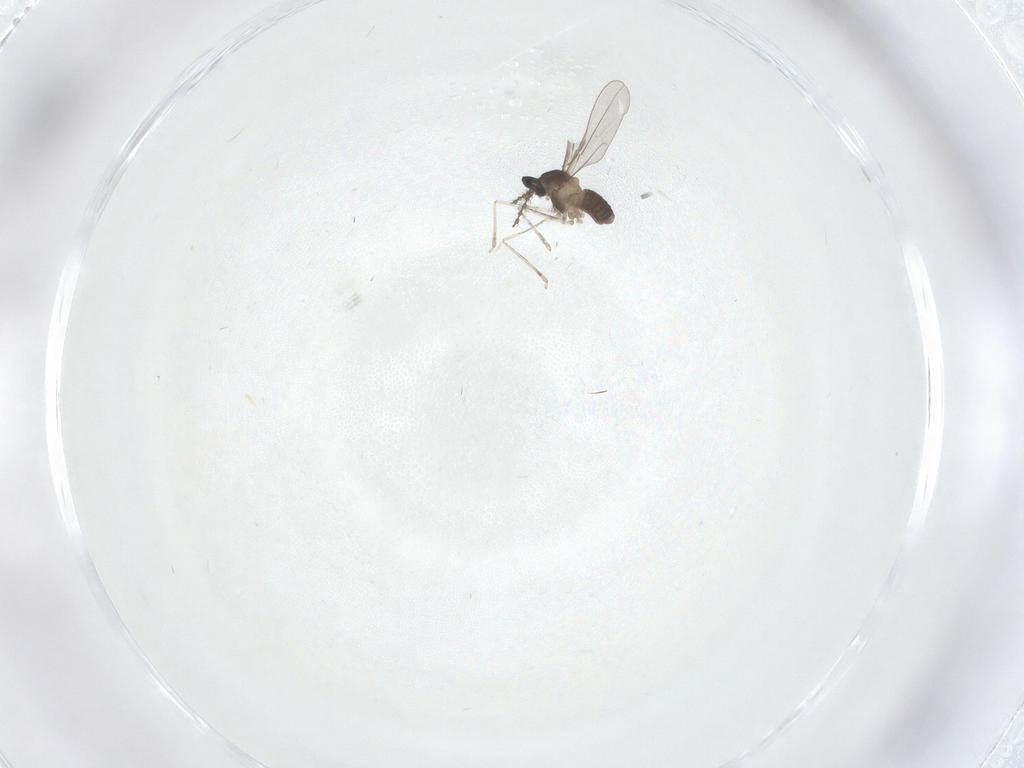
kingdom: Animalia
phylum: Arthropoda
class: Insecta
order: Diptera
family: Cecidomyiidae
